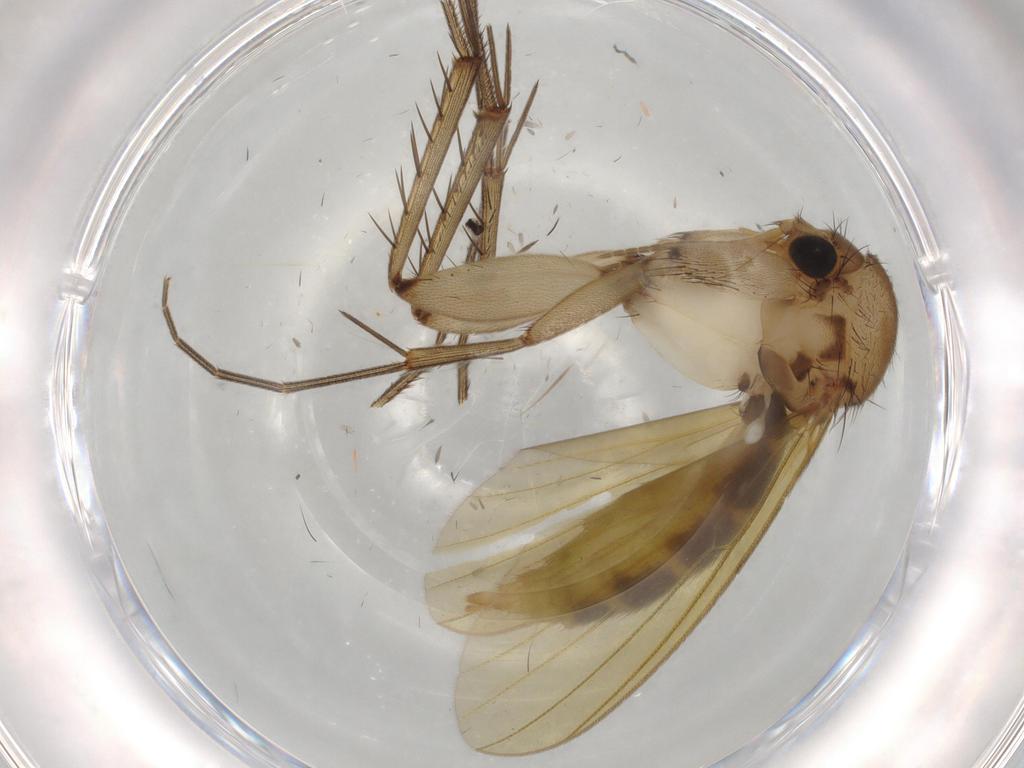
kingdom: Animalia
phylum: Arthropoda
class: Insecta
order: Diptera
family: Mycetophilidae
